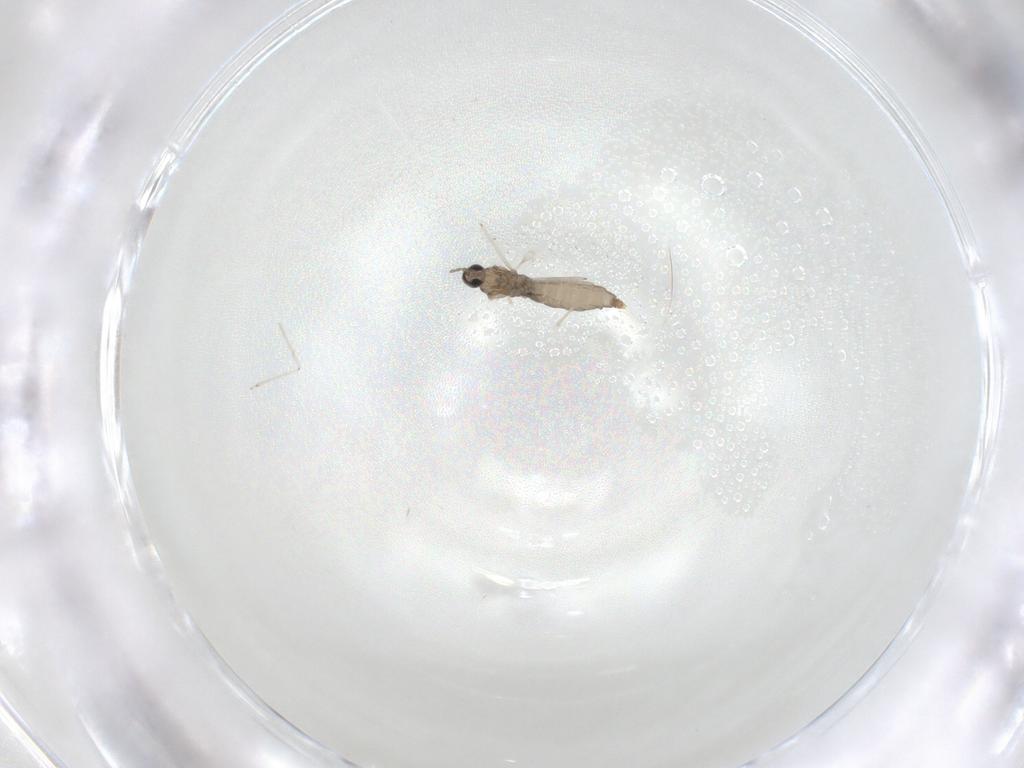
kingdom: Animalia
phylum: Arthropoda
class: Insecta
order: Diptera
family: Cecidomyiidae
